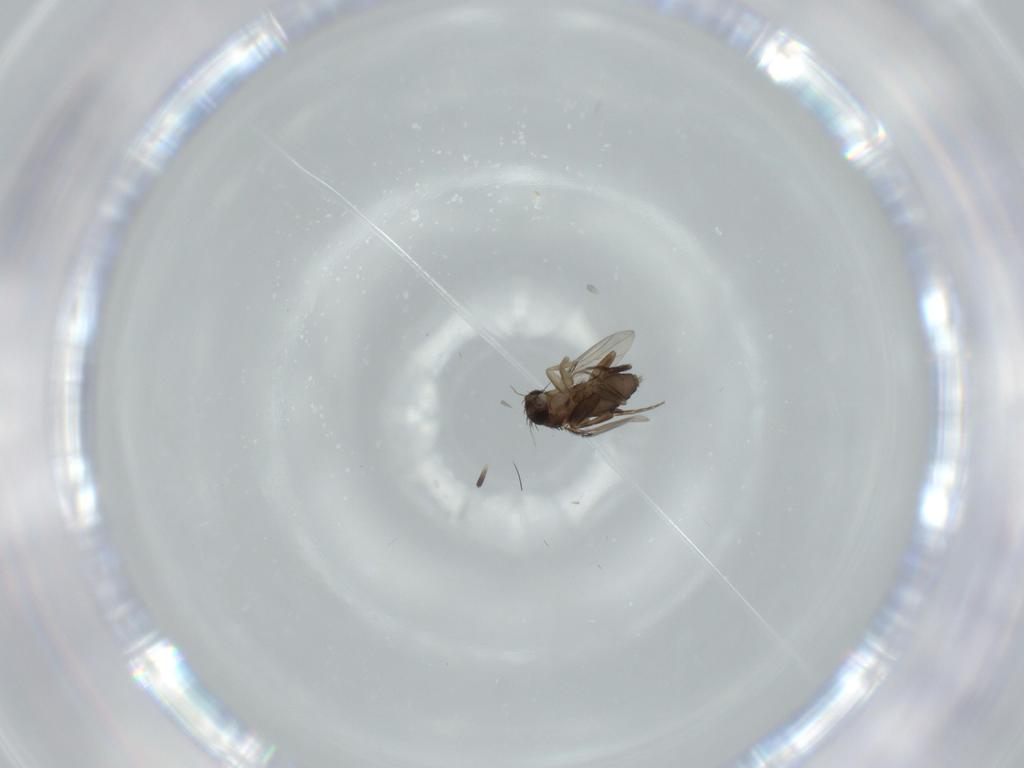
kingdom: Animalia
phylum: Arthropoda
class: Insecta
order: Diptera
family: Phoridae
